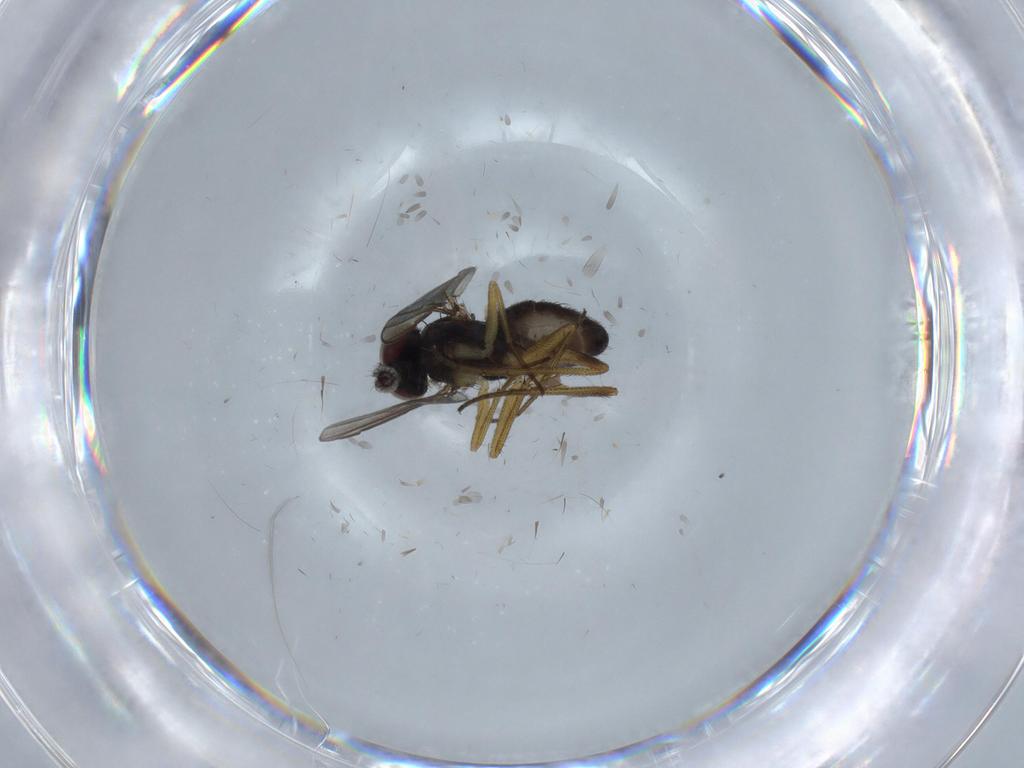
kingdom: Animalia
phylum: Arthropoda
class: Insecta
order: Diptera
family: Dolichopodidae
